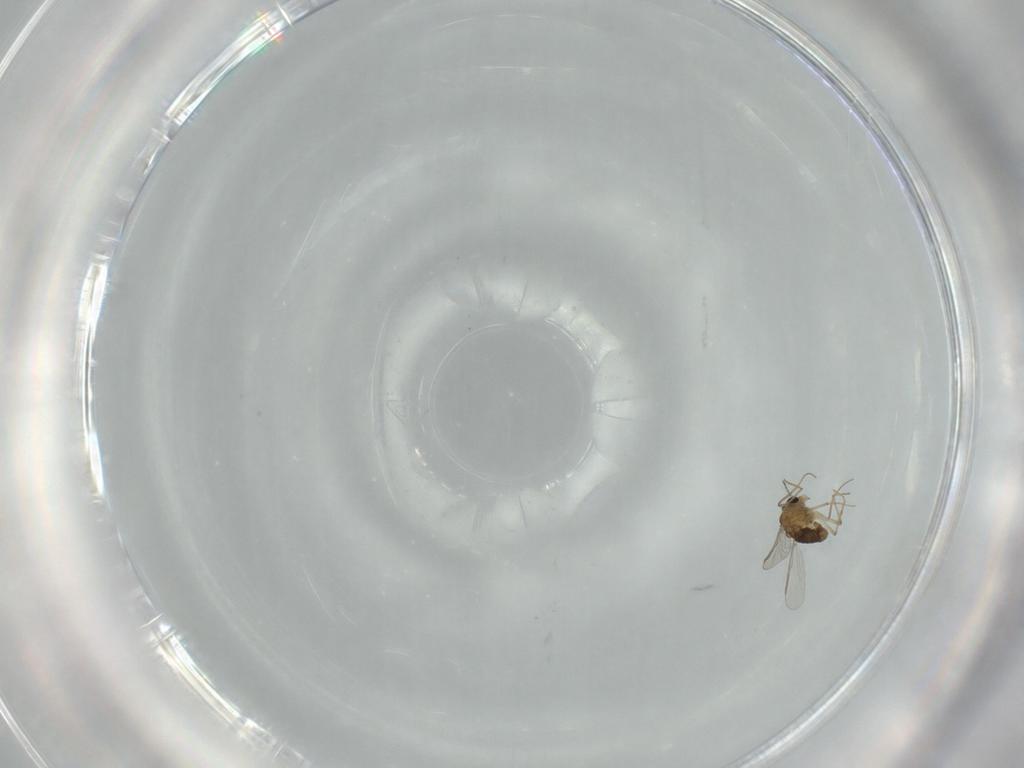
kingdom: Animalia
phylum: Arthropoda
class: Insecta
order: Diptera
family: Chironomidae
